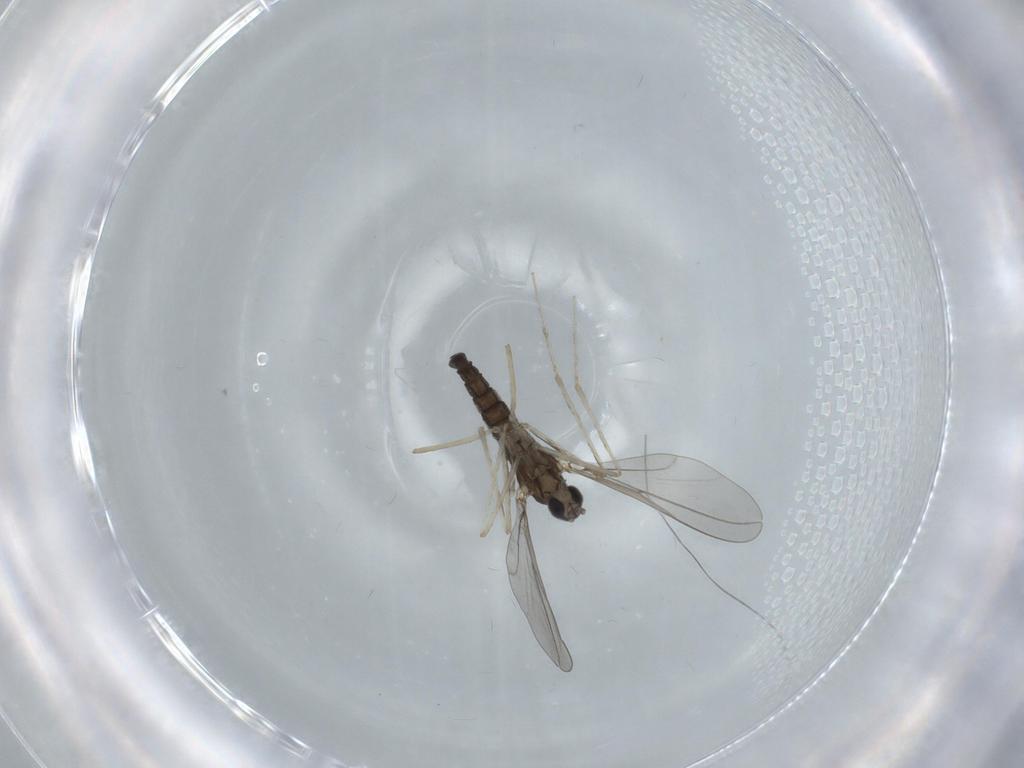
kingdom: Animalia
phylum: Arthropoda
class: Insecta
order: Diptera
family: Cecidomyiidae
